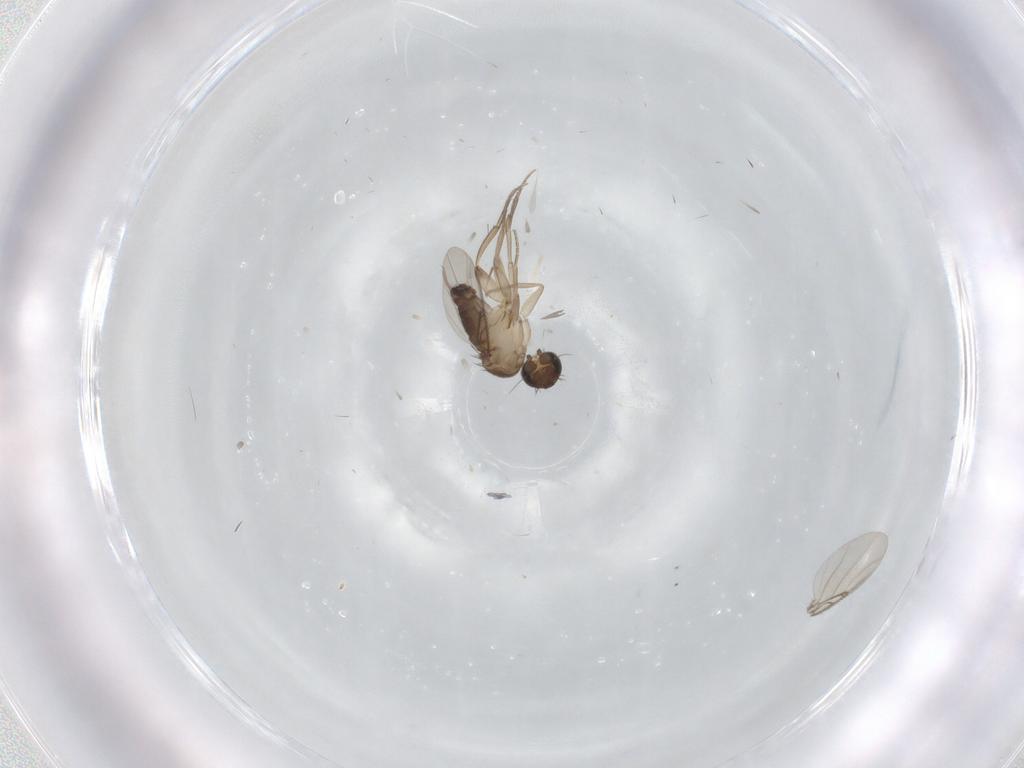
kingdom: Animalia
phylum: Arthropoda
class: Insecta
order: Diptera
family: Phoridae
